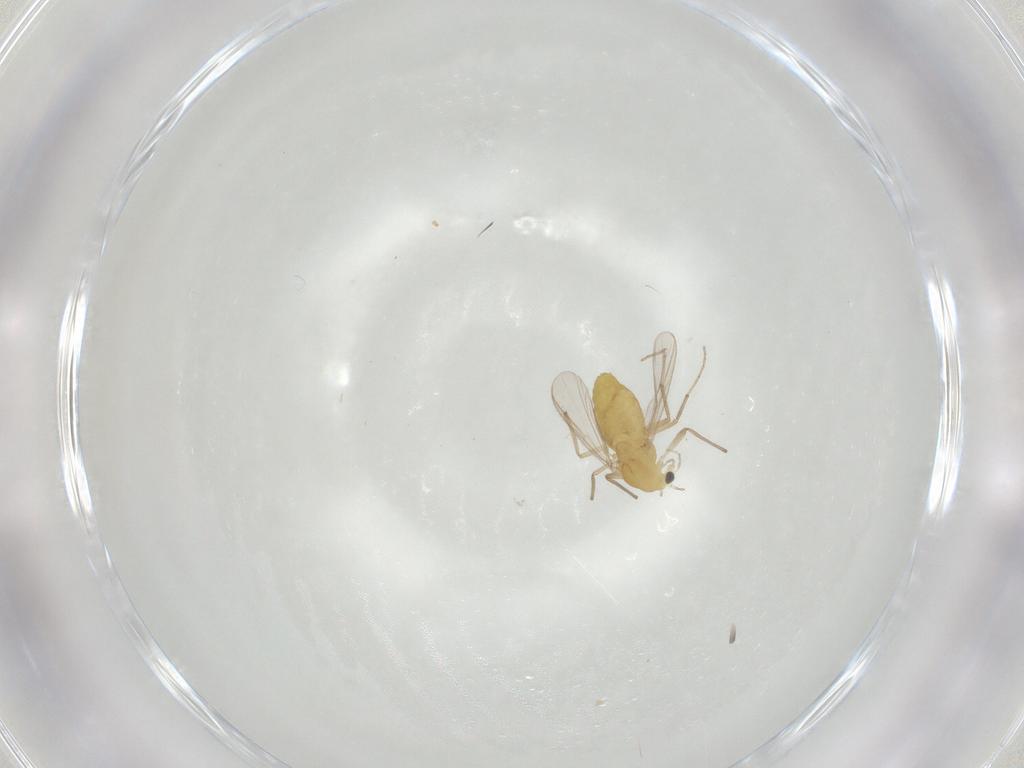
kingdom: Animalia
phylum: Arthropoda
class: Insecta
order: Diptera
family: Chironomidae
